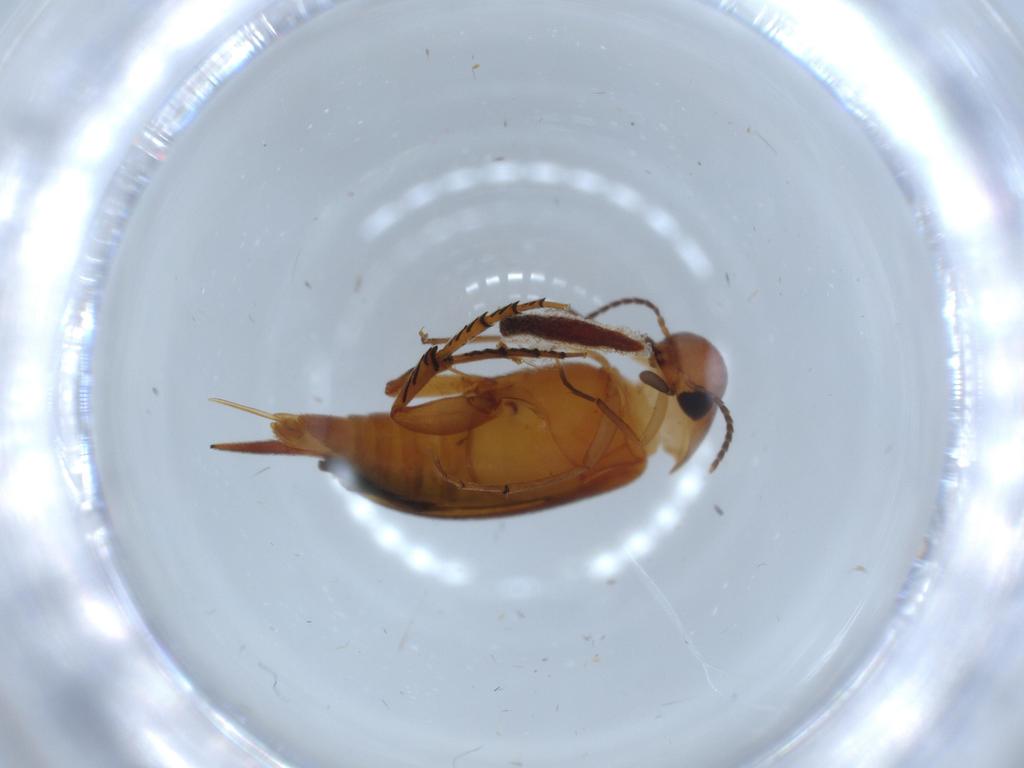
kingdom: Animalia
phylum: Arthropoda
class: Insecta
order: Coleoptera
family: Mordellidae
